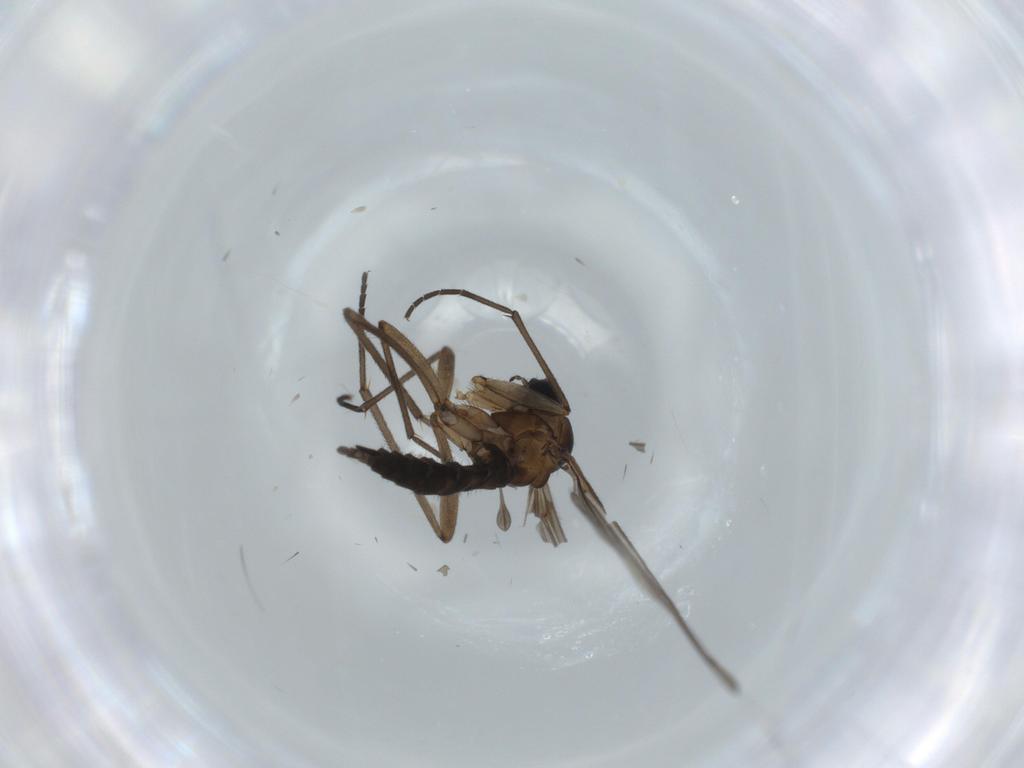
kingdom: Animalia
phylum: Arthropoda
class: Insecta
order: Diptera
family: Sciaridae
